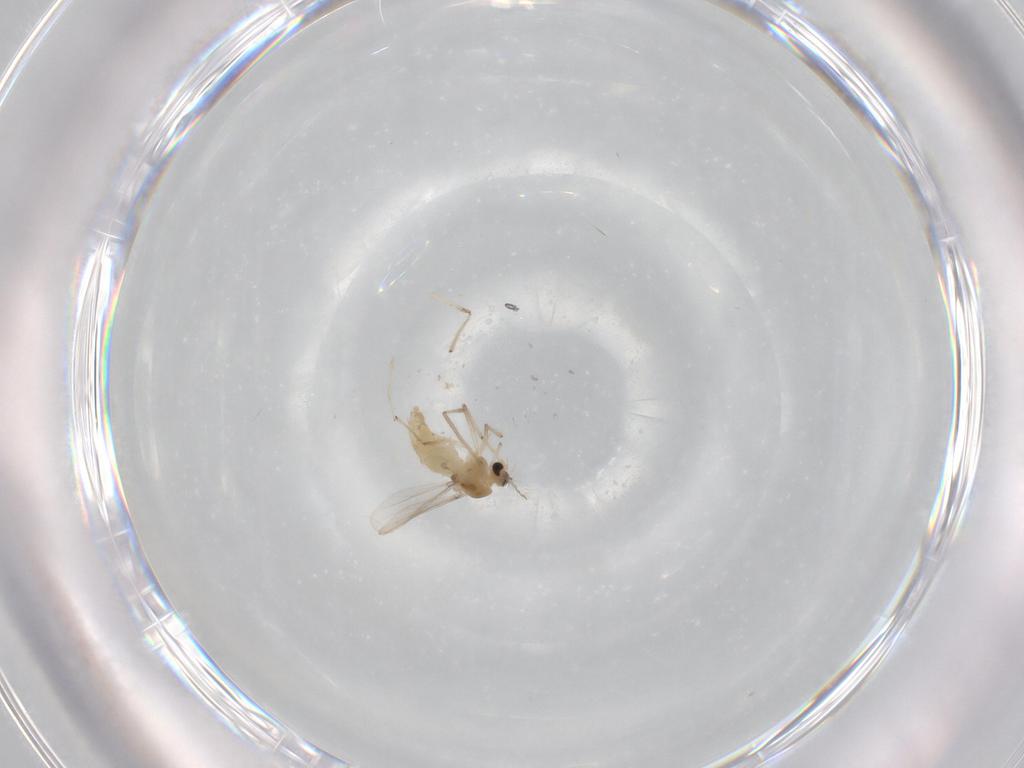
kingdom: Animalia
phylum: Arthropoda
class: Insecta
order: Diptera
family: Chironomidae
